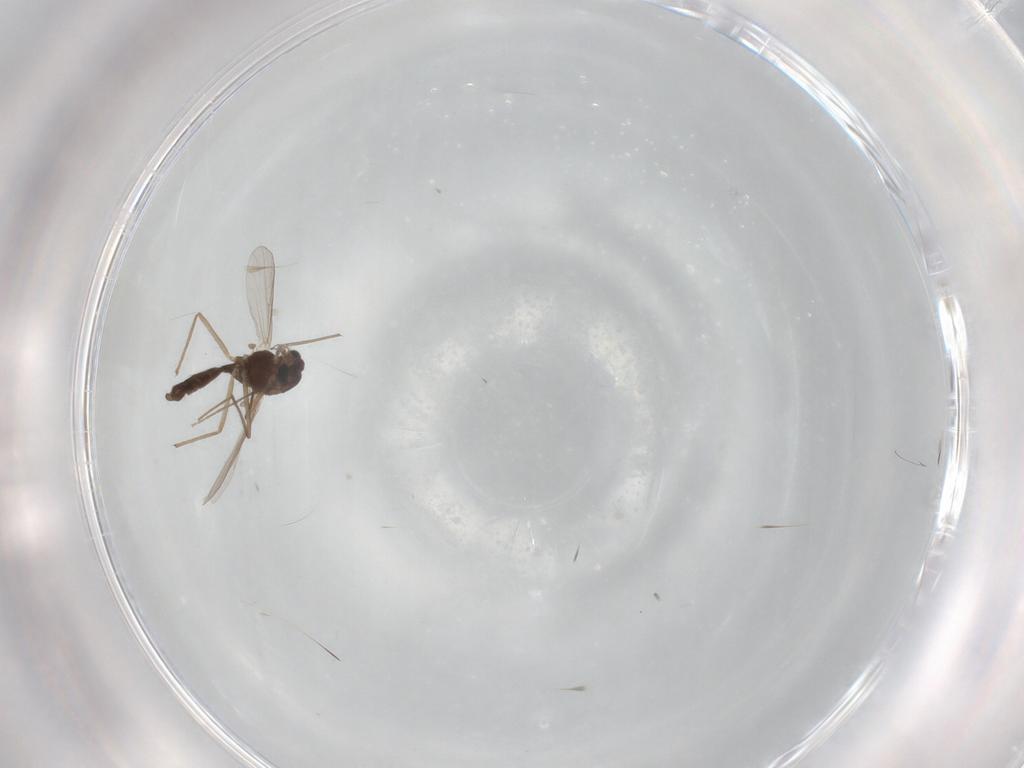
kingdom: Animalia
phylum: Arthropoda
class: Insecta
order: Diptera
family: Chironomidae
